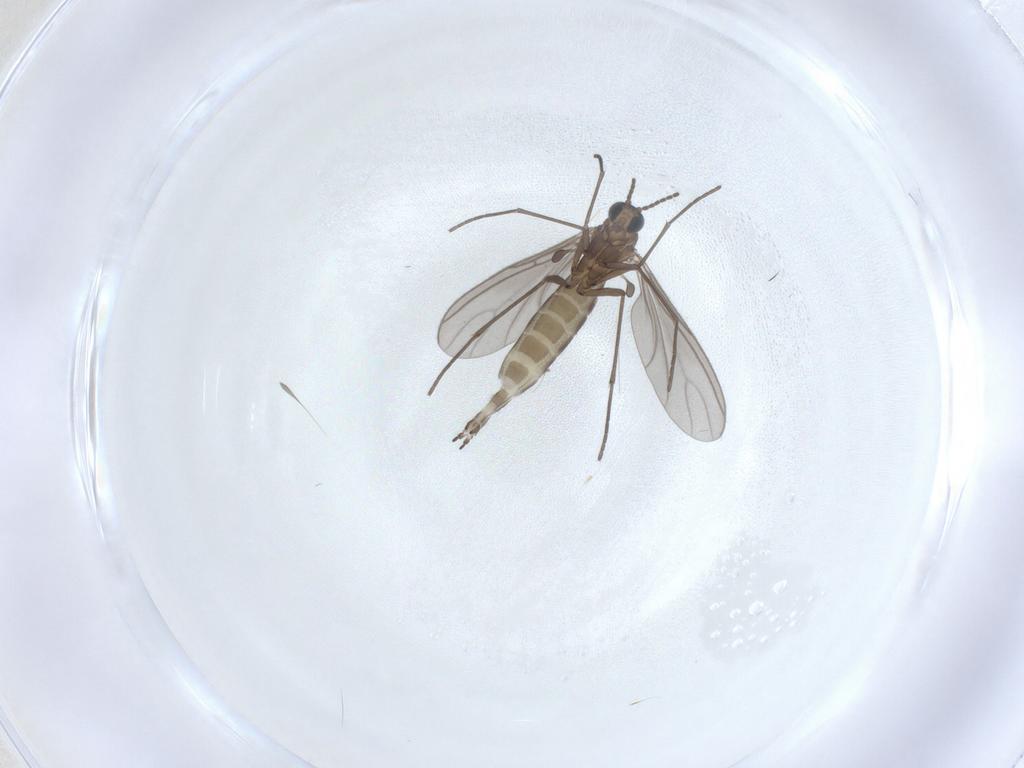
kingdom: Animalia
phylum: Arthropoda
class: Insecta
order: Diptera
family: Sciaridae
